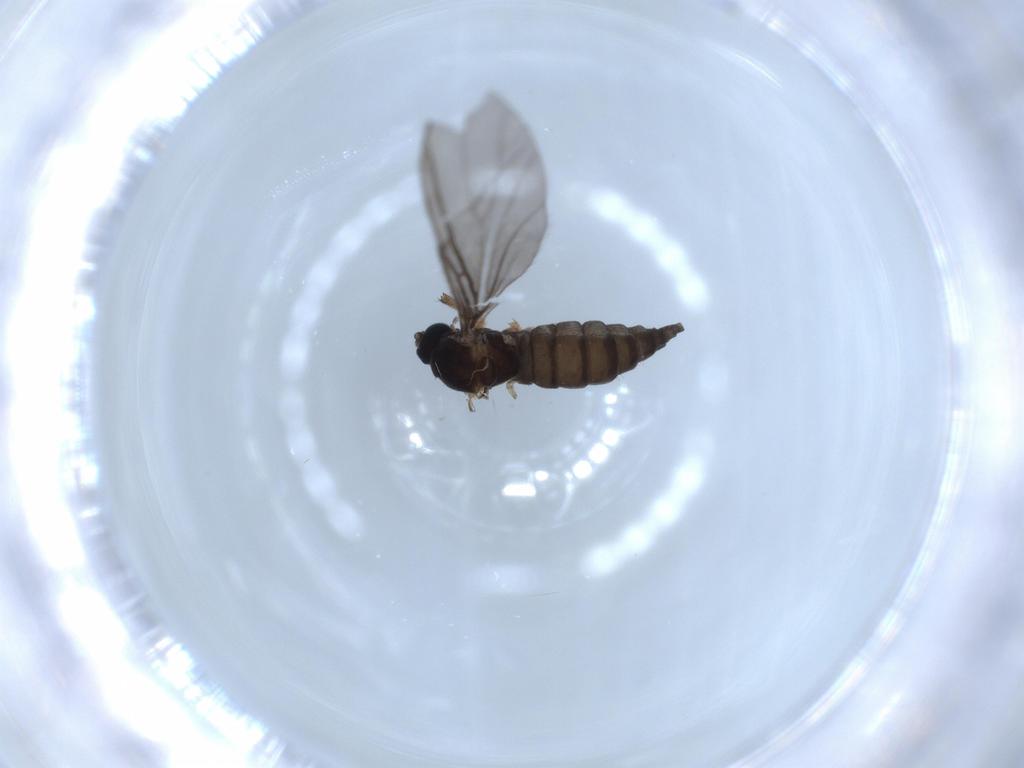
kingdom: Animalia
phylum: Arthropoda
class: Insecta
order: Diptera
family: Sciaridae
